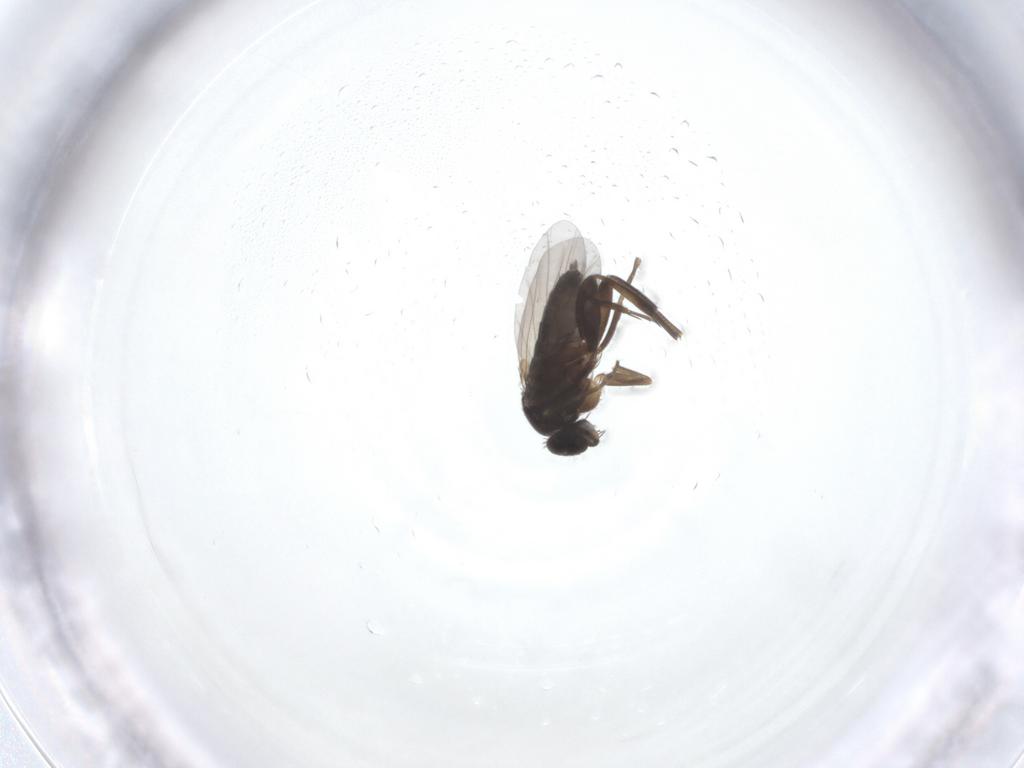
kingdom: Animalia
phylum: Arthropoda
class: Insecta
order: Diptera
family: Phoridae
